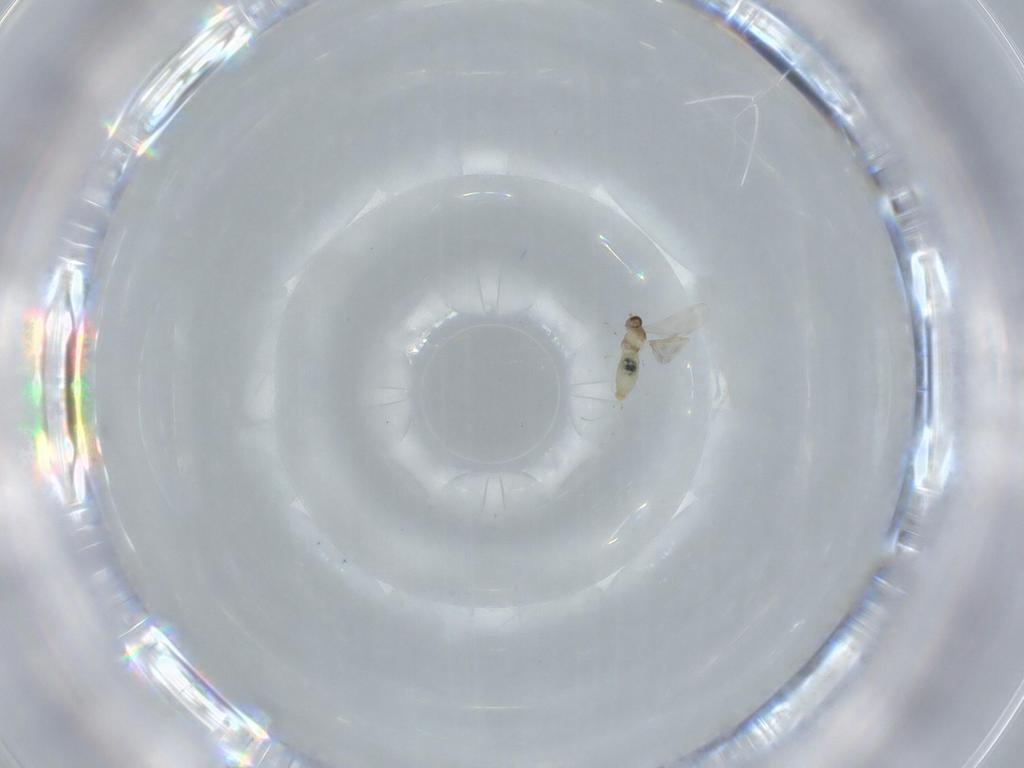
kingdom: Animalia
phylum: Arthropoda
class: Insecta
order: Diptera
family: Cecidomyiidae
